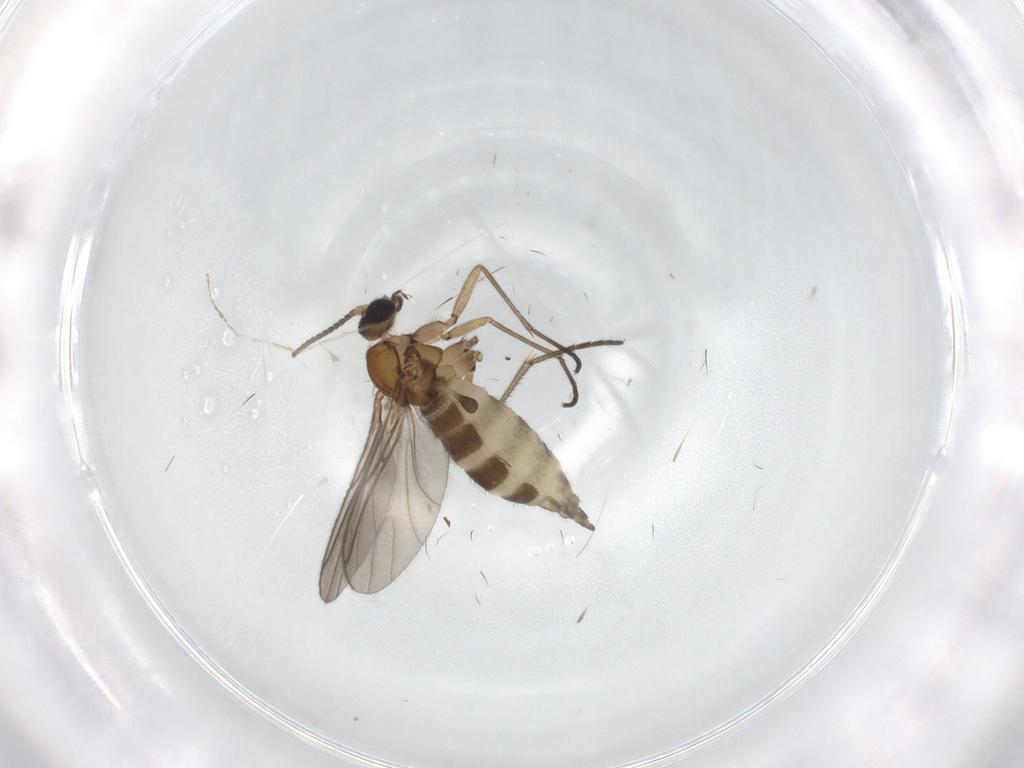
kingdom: Animalia
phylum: Arthropoda
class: Insecta
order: Diptera
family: Sciaridae
